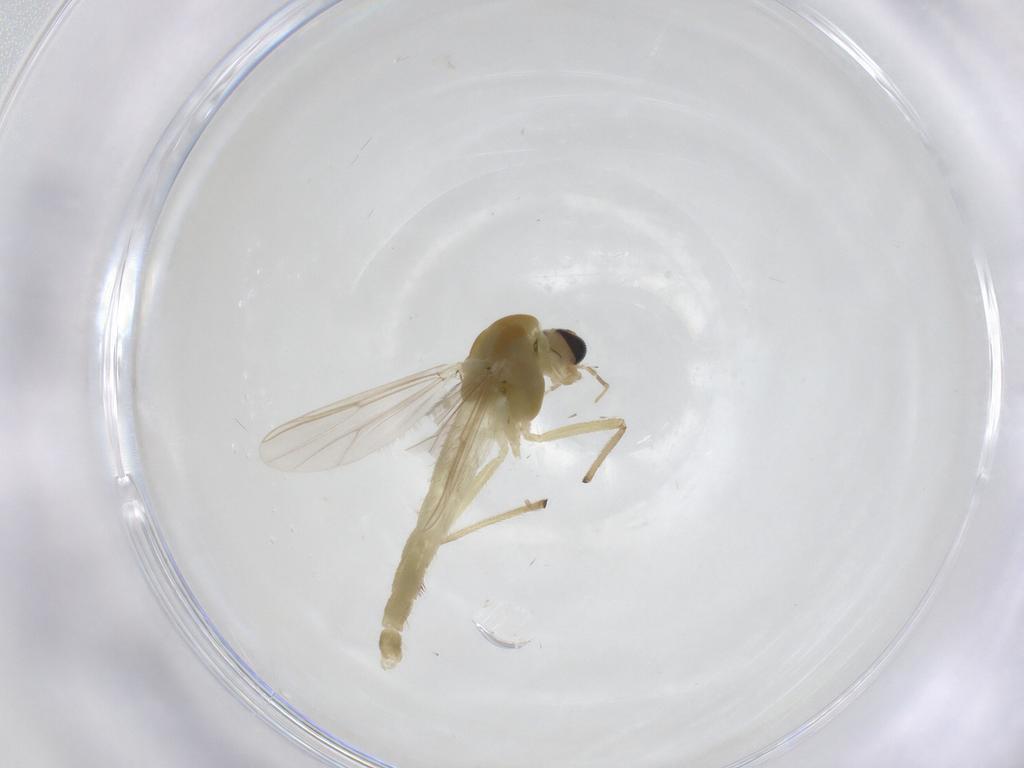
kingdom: Animalia
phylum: Arthropoda
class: Insecta
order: Diptera
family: Chironomidae
